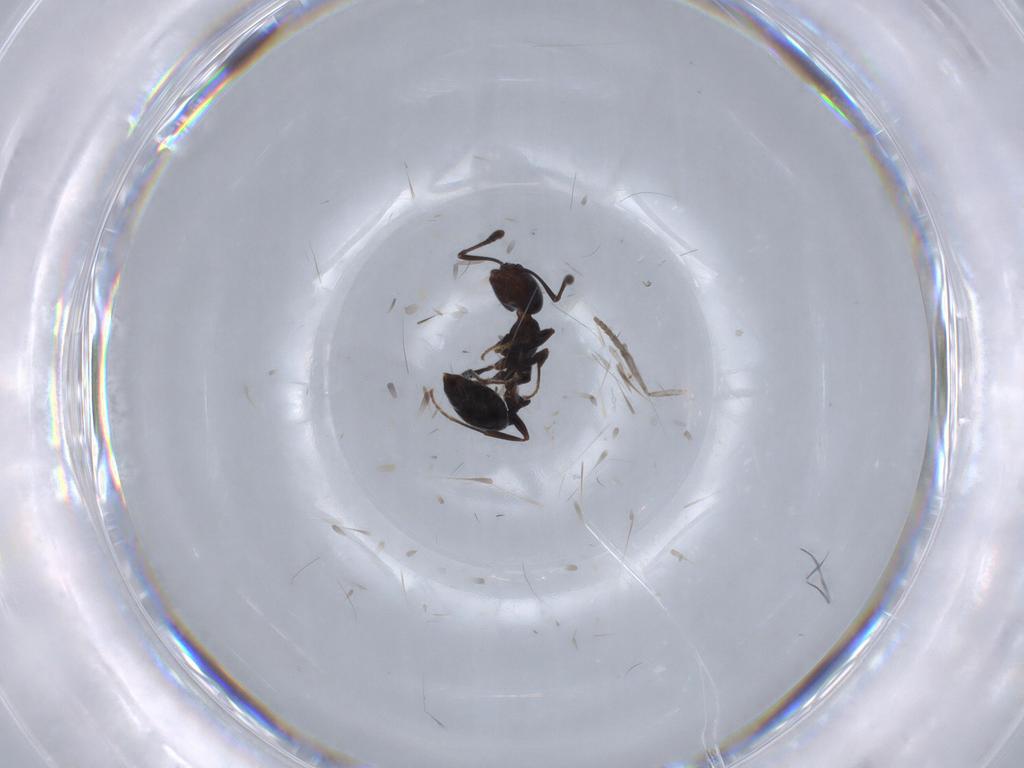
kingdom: Animalia
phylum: Arthropoda
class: Insecta
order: Hymenoptera
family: Formicidae
